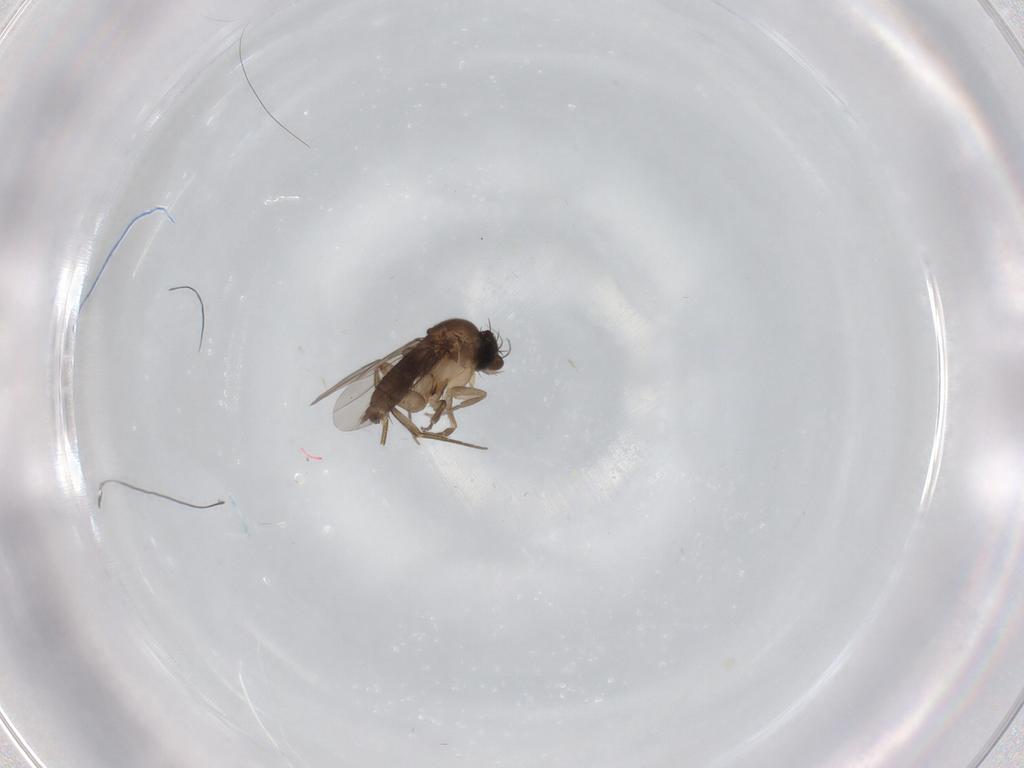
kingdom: Animalia
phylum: Arthropoda
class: Insecta
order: Diptera
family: Phoridae
